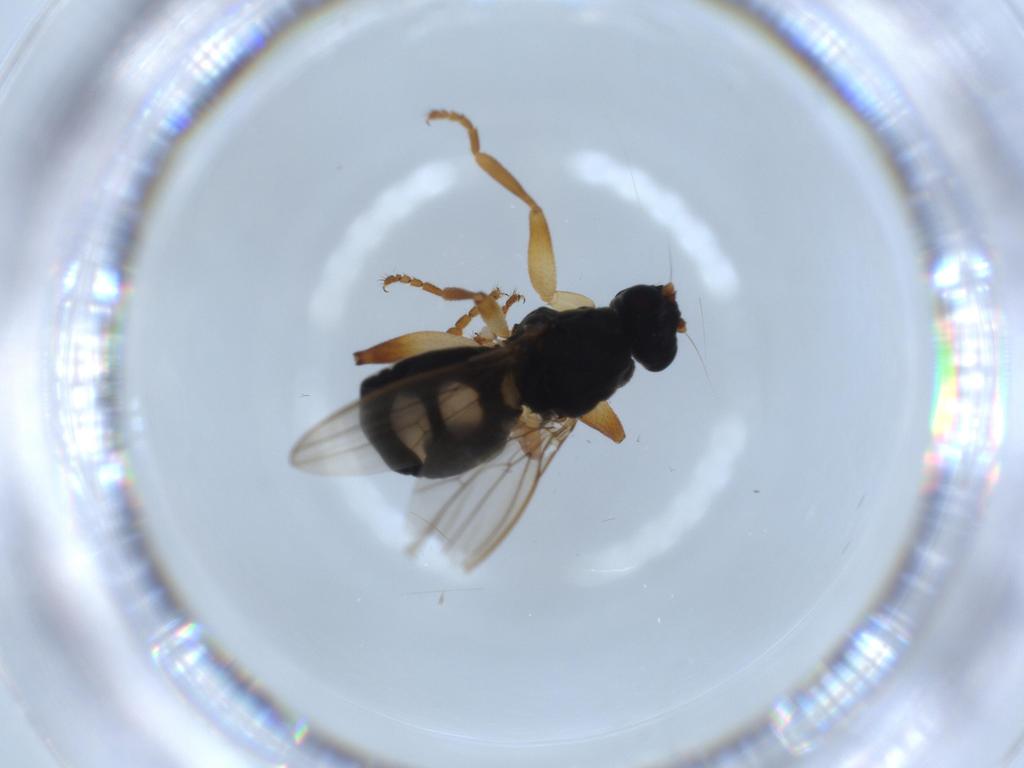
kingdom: Animalia
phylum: Arthropoda
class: Insecta
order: Diptera
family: Sphaeroceridae
